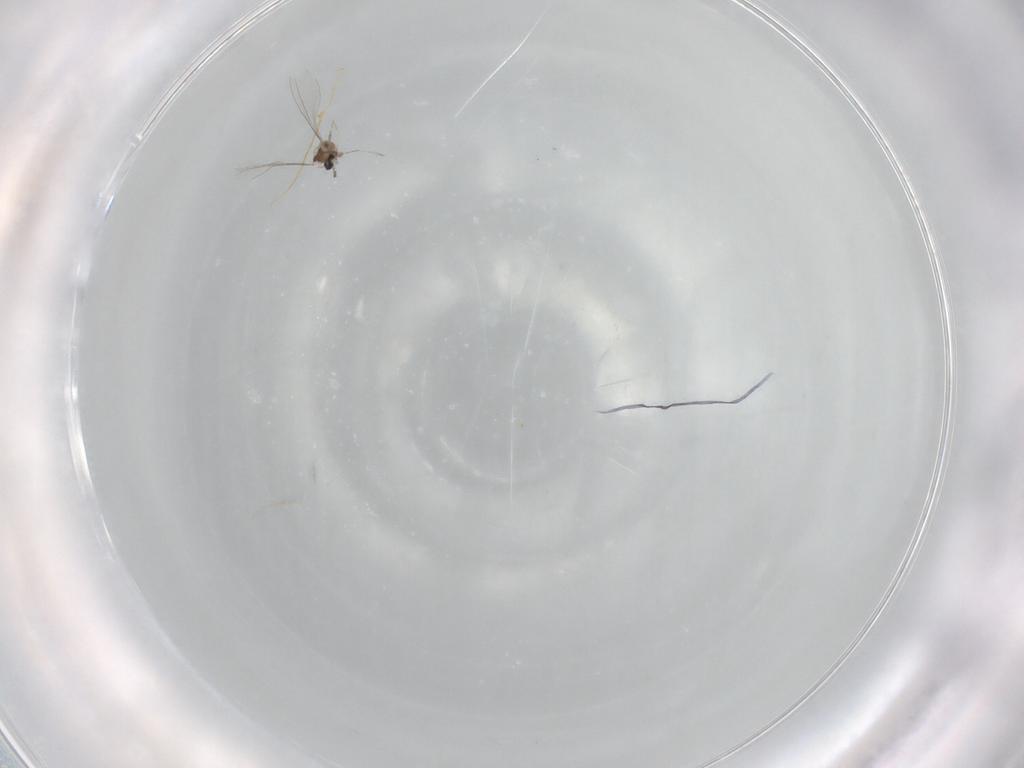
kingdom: Animalia
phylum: Arthropoda
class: Insecta
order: Diptera
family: Cecidomyiidae
